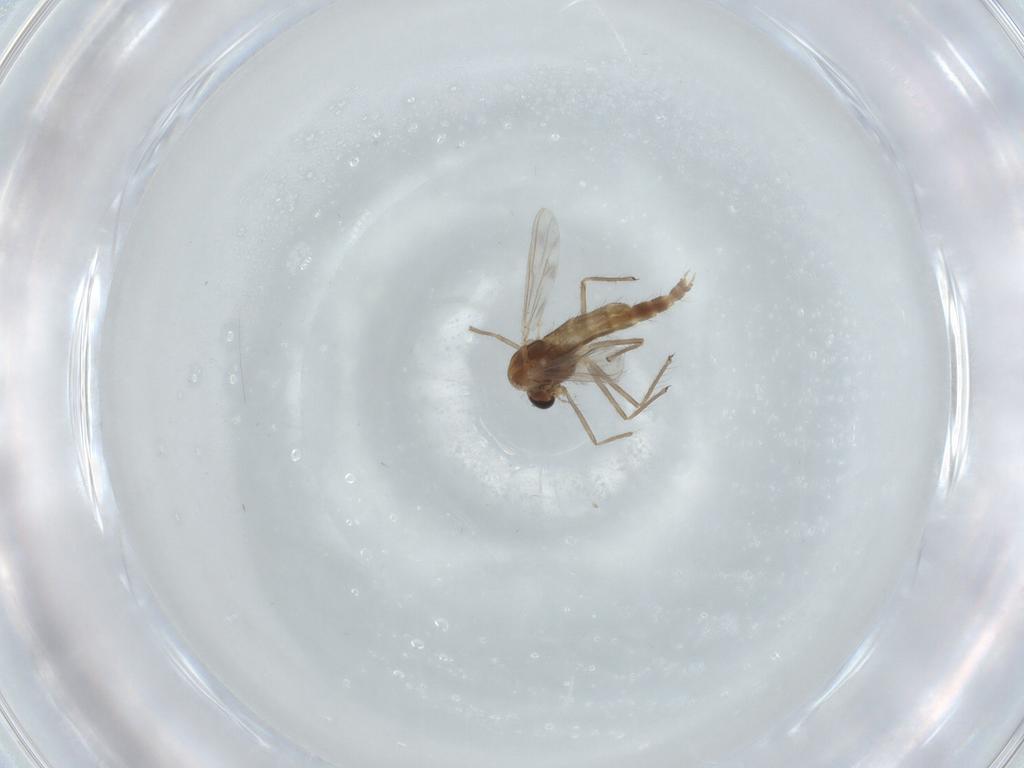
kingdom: Animalia
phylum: Arthropoda
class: Insecta
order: Diptera
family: Chironomidae
